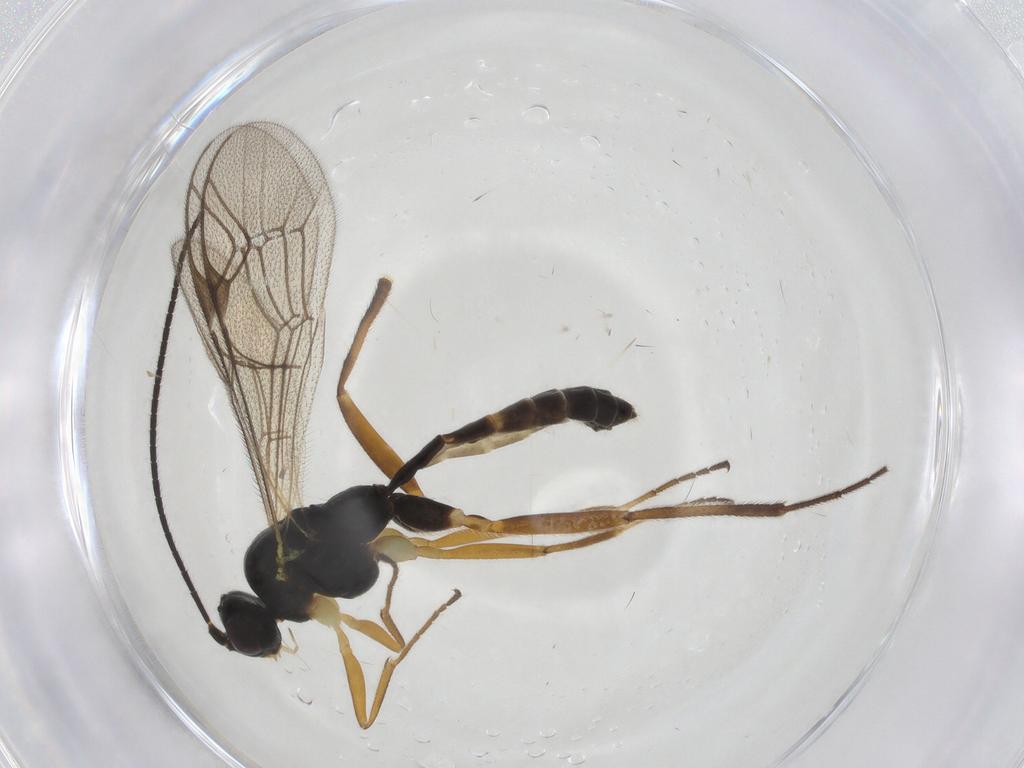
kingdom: Animalia
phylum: Arthropoda
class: Insecta
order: Hymenoptera
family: Ichneumonidae
